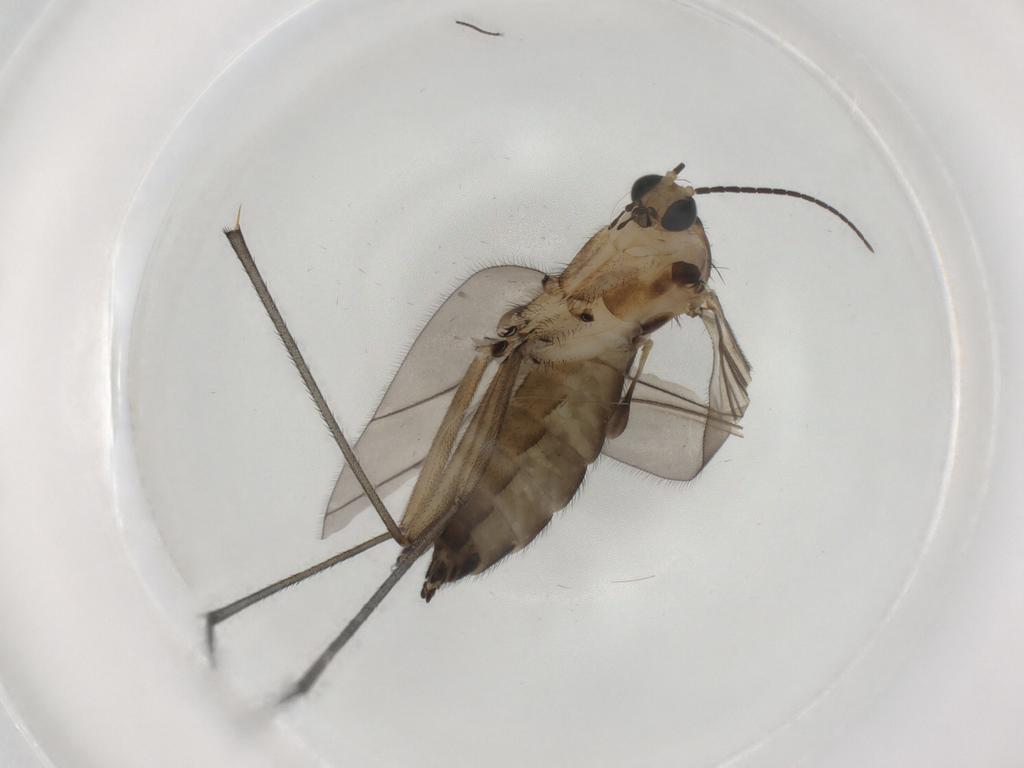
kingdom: Animalia
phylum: Arthropoda
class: Insecta
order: Diptera
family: Sciaridae
